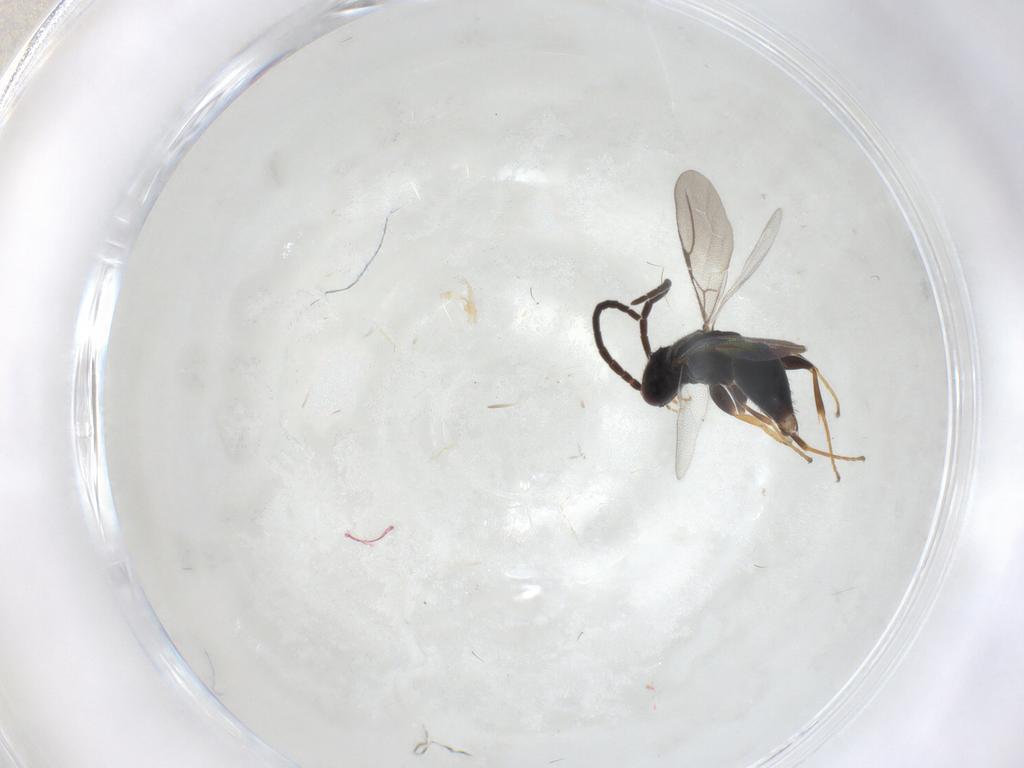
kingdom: Animalia
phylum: Arthropoda
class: Insecta
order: Hymenoptera
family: Bethylidae
